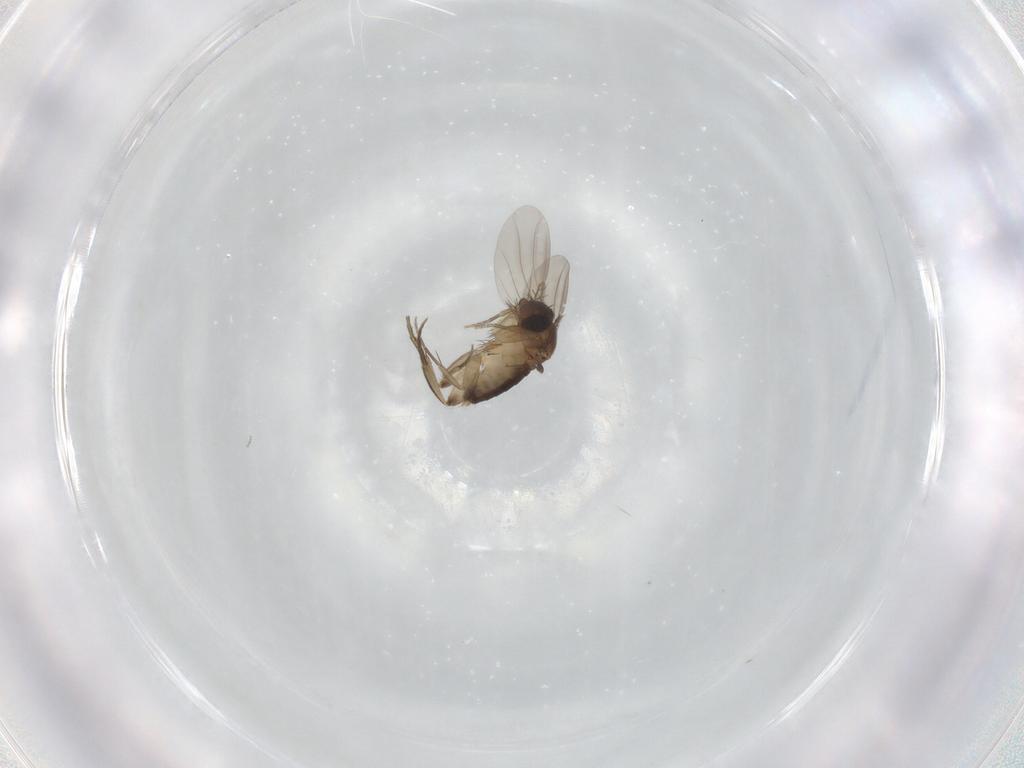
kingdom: Animalia
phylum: Arthropoda
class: Insecta
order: Diptera
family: Phoridae
